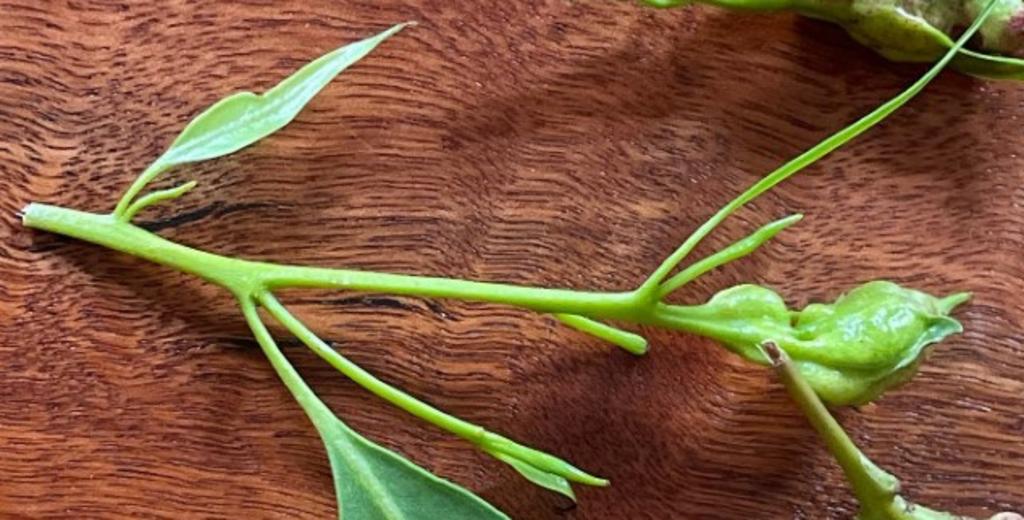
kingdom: Animalia
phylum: Arthropoda
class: Insecta
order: Diptera
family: Fergusoninidae
